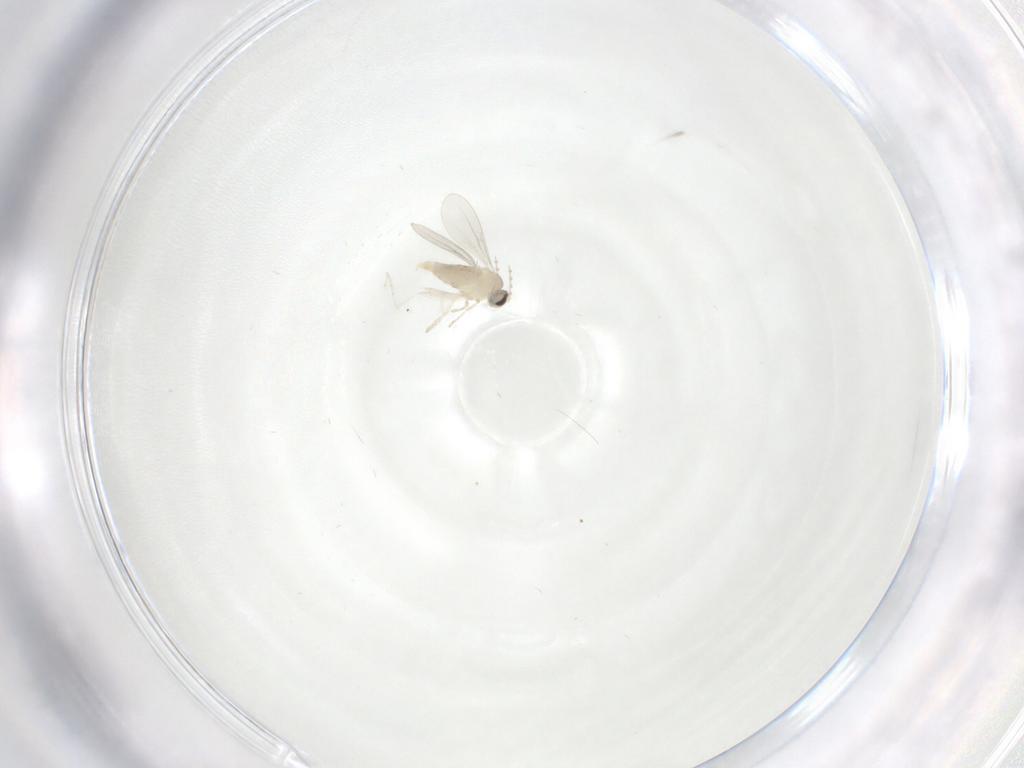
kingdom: Animalia
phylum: Arthropoda
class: Insecta
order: Diptera
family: Cecidomyiidae
